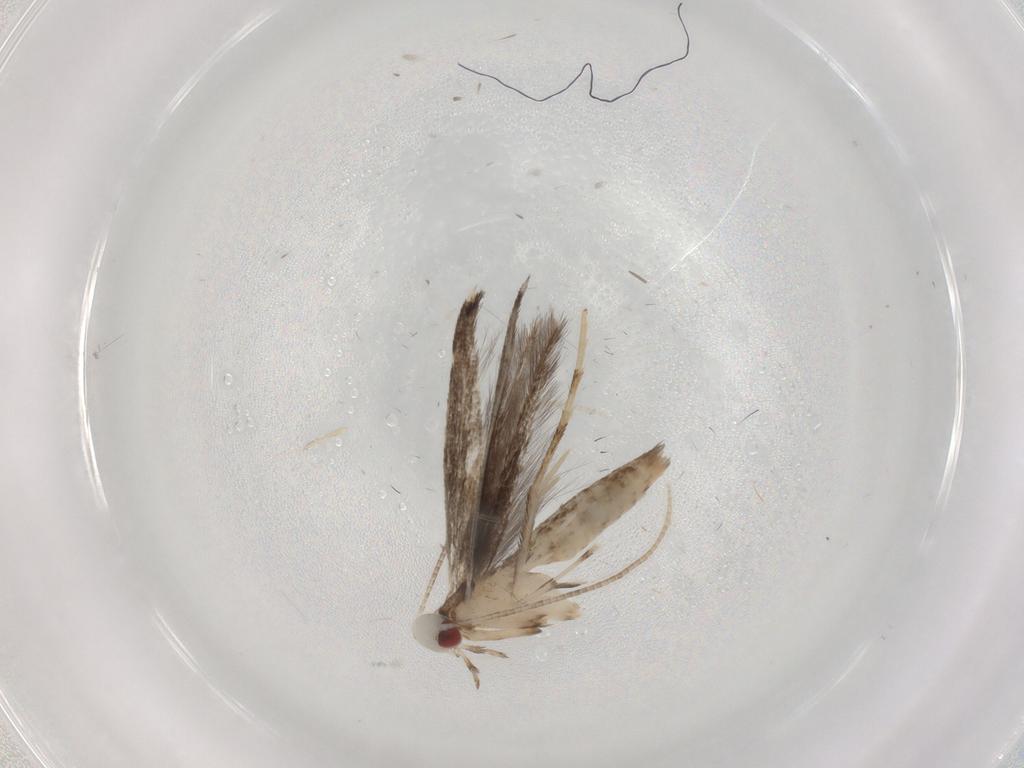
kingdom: Animalia
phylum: Arthropoda
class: Insecta
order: Lepidoptera
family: Gracillariidae
